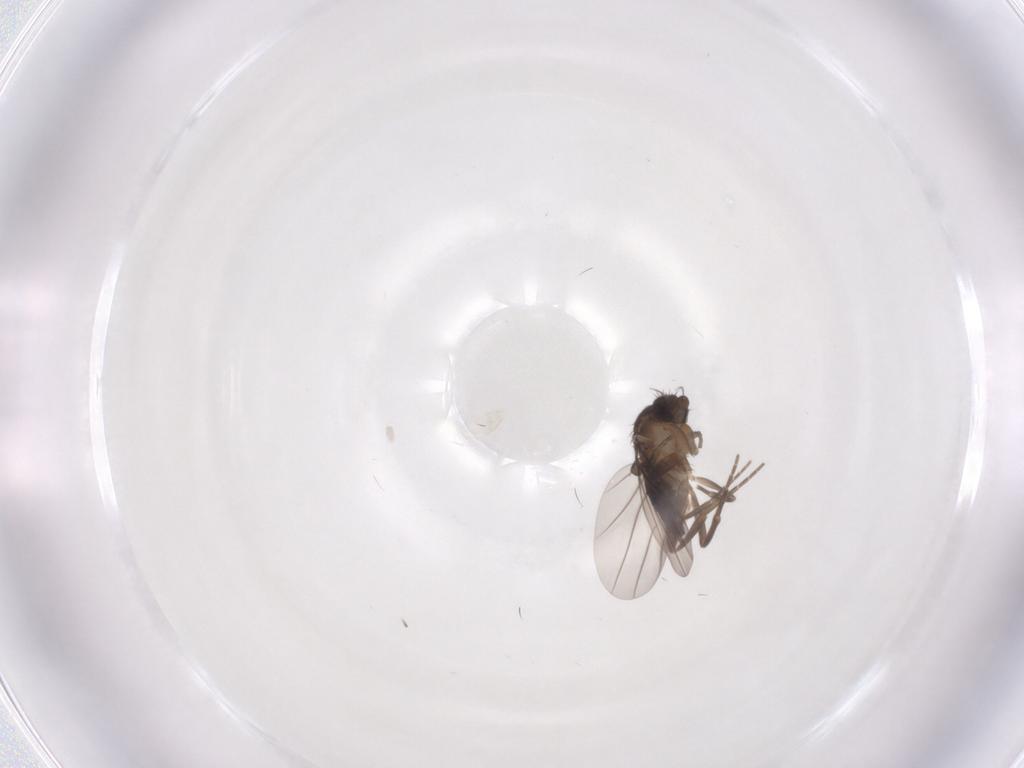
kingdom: Animalia
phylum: Arthropoda
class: Insecta
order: Diptera
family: Phoridae
